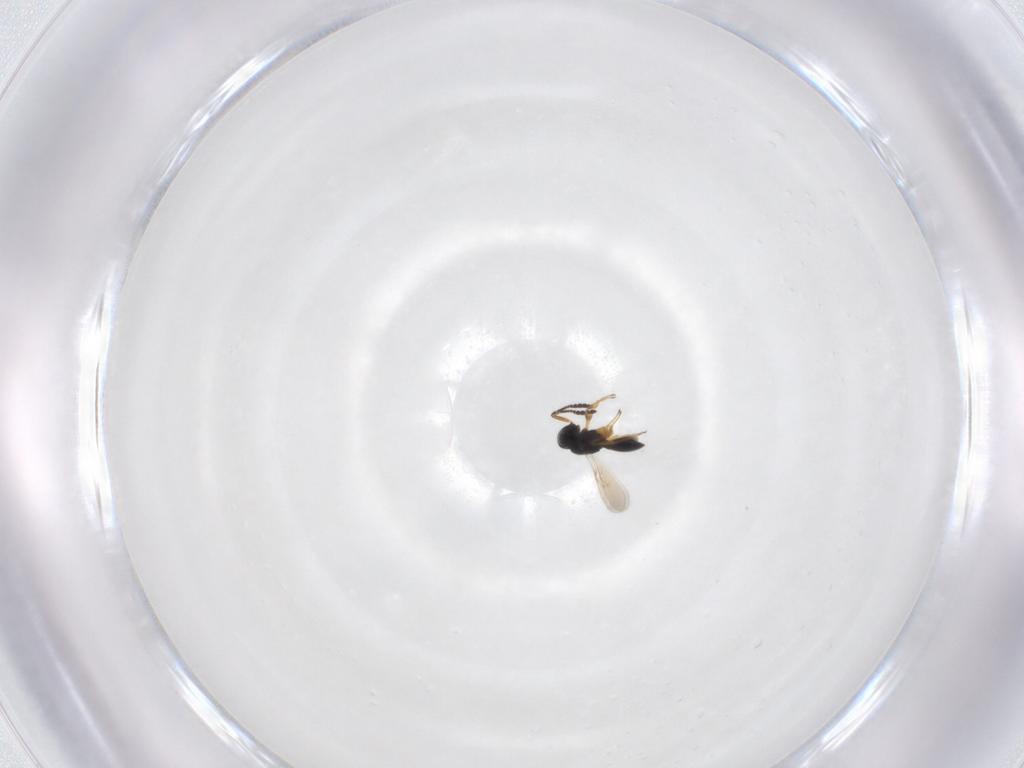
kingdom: Animalia
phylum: Arthropoda
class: Insecta
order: Hymenoptera
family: Scelionidae
